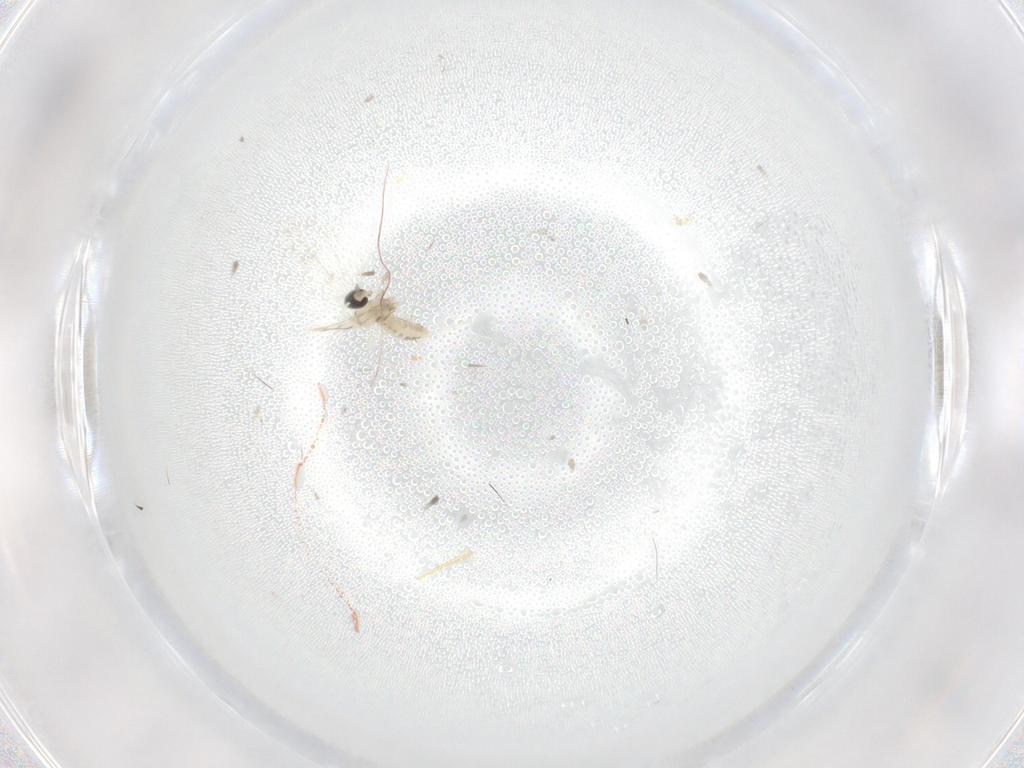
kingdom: Animalia
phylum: Arthropoda
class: Insecta
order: Diptera
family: Cecidomyiidae
